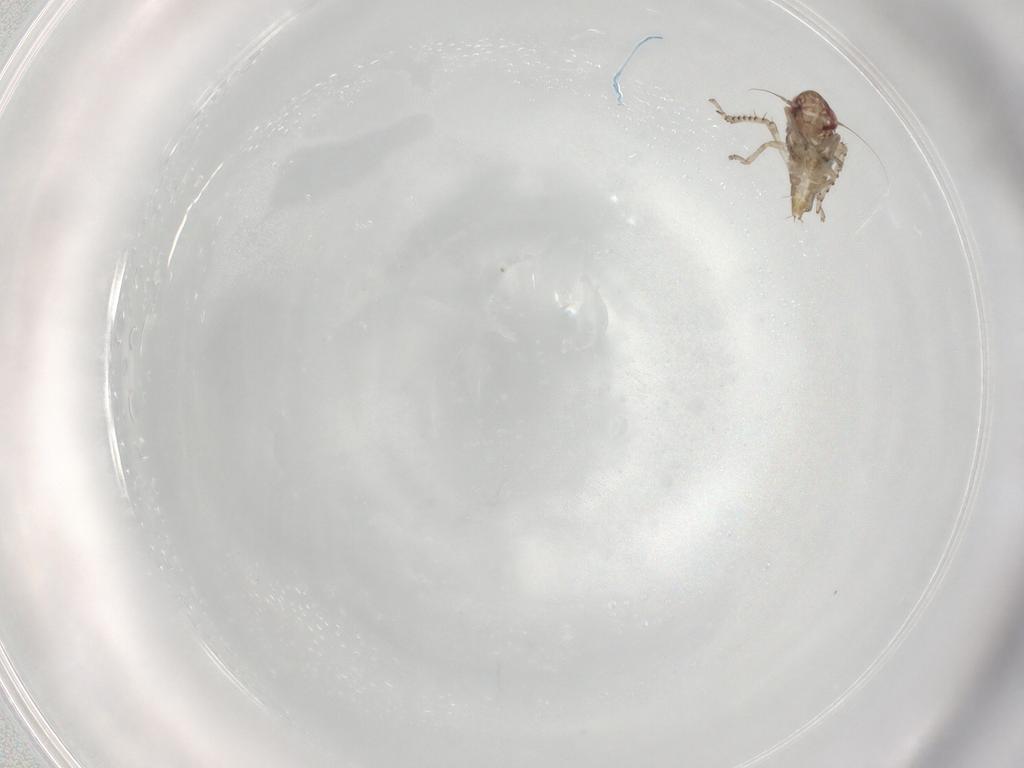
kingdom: Animalia
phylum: Arthropoda
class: Insecta
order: Hemiptera
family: Cicadellidae
